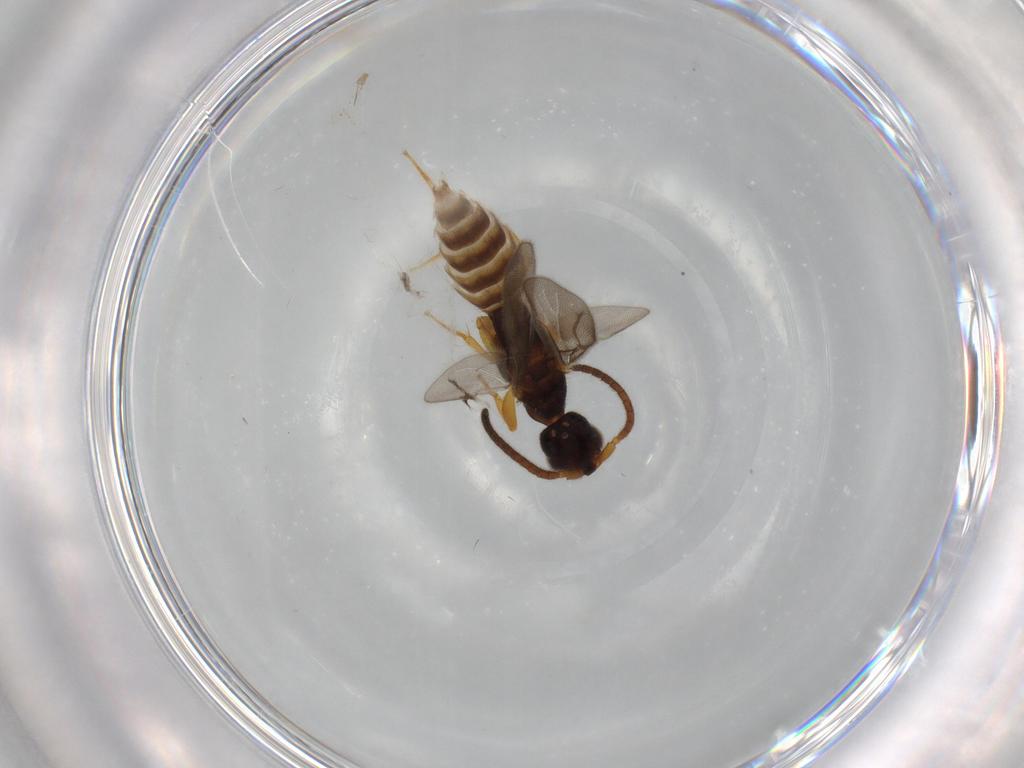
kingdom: Animalia
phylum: Arthropoda
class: Insecta
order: Hymenoptera
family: Bethylidae
